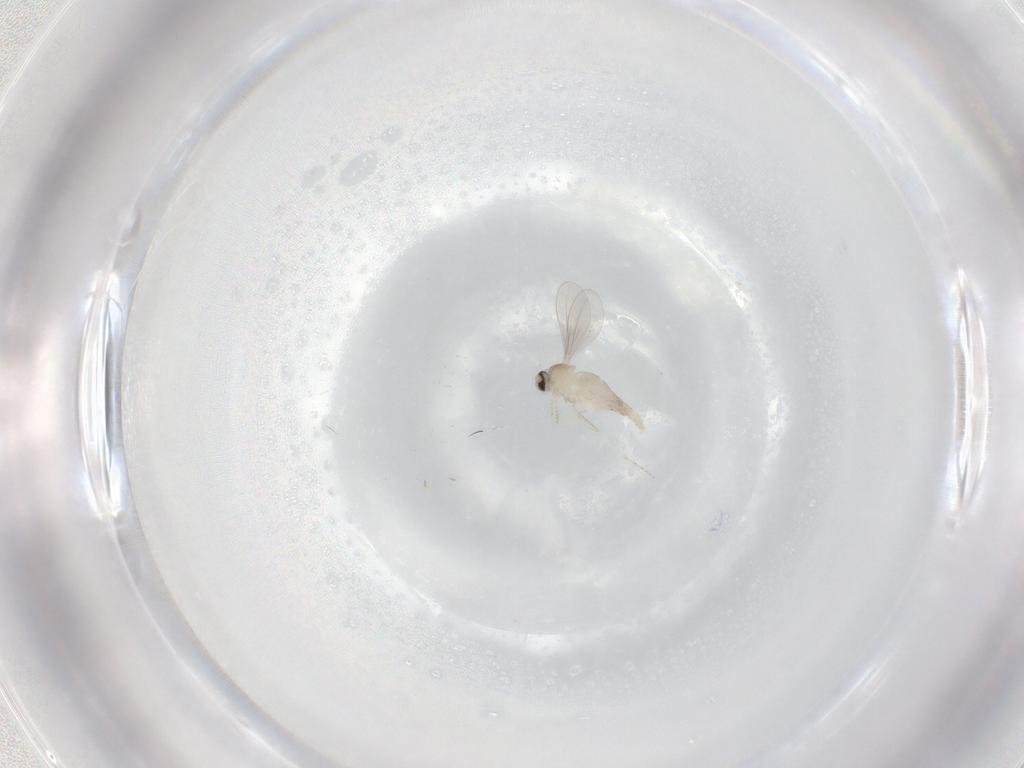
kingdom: Animalia
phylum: Arthropoda
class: Insecta
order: Diptera
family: Cecidomyiidae
